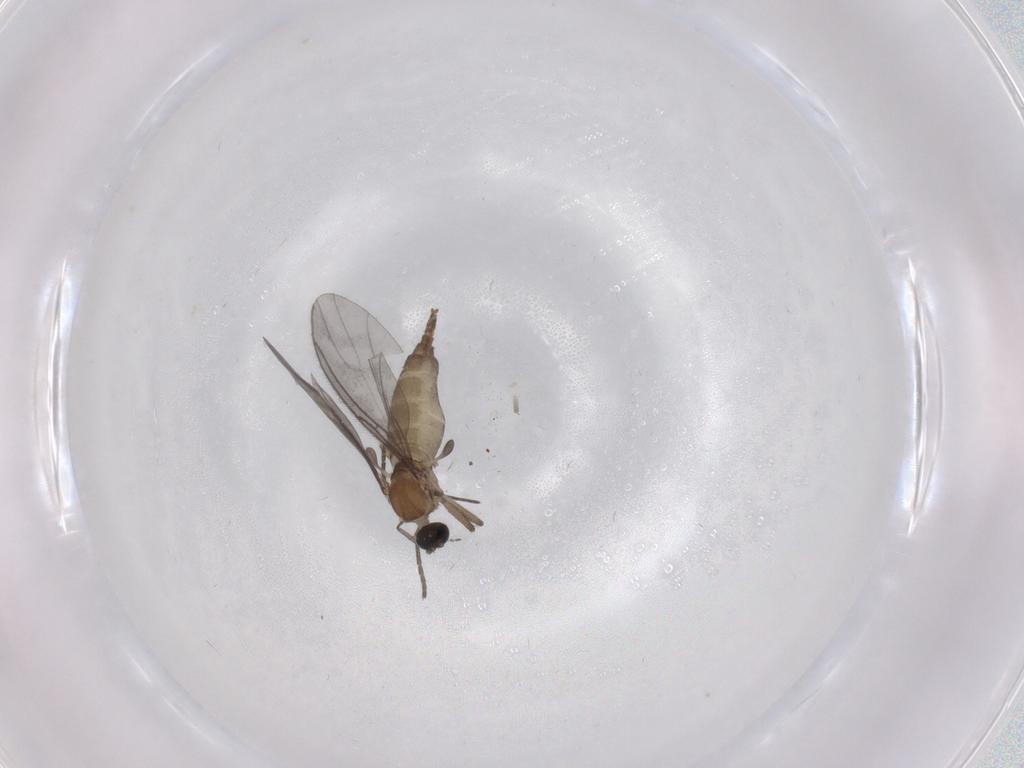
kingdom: Animalia
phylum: Arthropoda
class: Insecta
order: Diptera
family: Sciaridae
